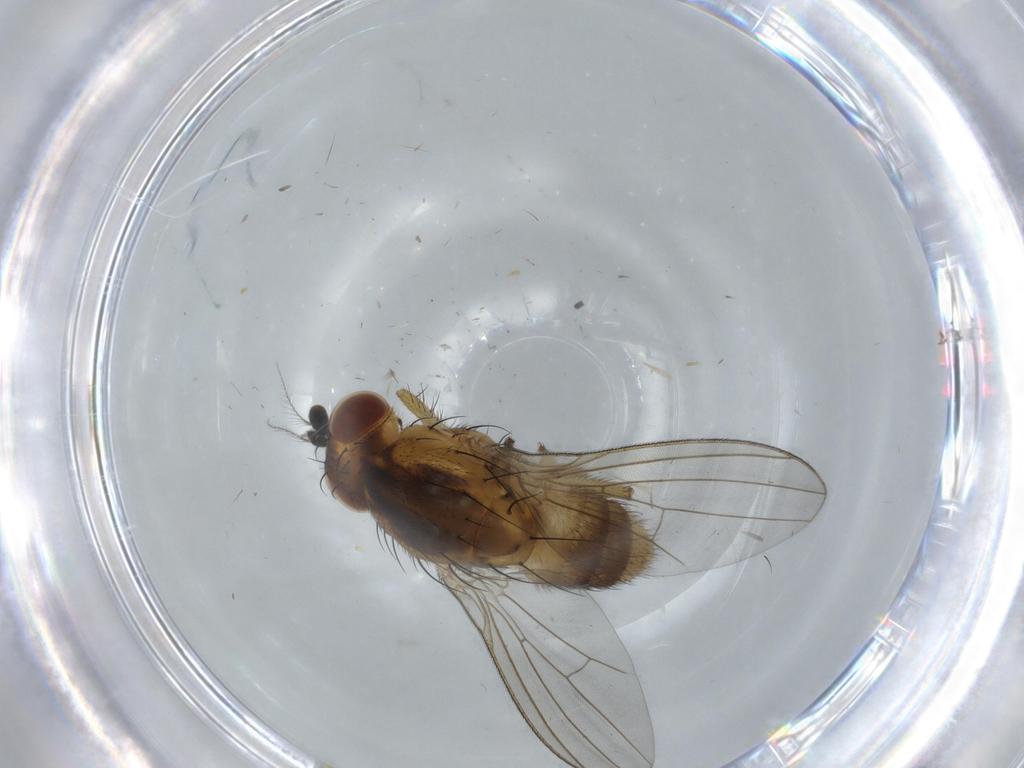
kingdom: Animalia
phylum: Arthropoda
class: Insecta
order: Diptera
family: Lauxaniidae
